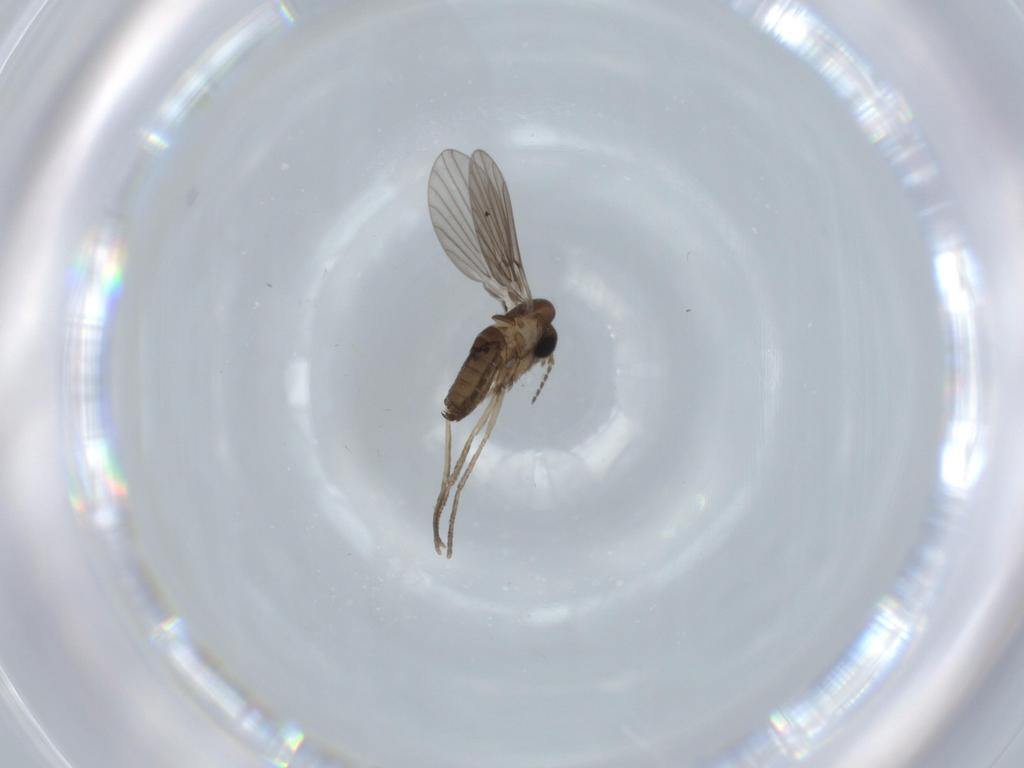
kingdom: Animalia
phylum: Arthropoda
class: Insecta
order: Diptera
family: Psychodidae
